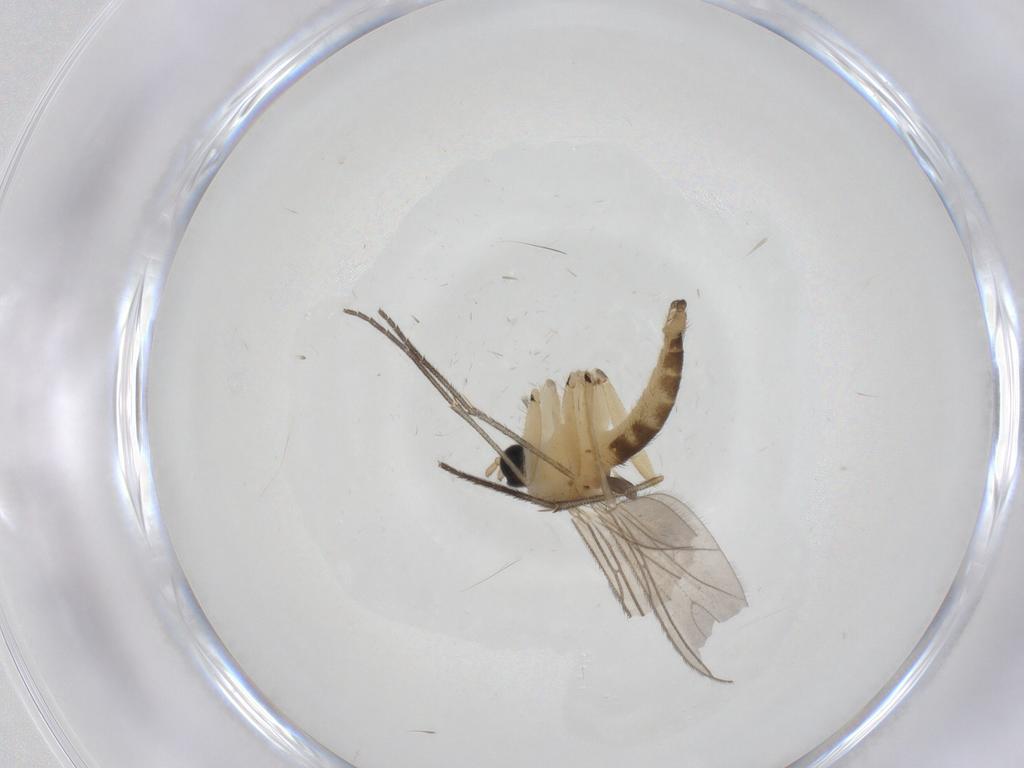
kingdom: Animalia
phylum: Arthropoda
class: Insecta
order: Diptera
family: Sciaridae
